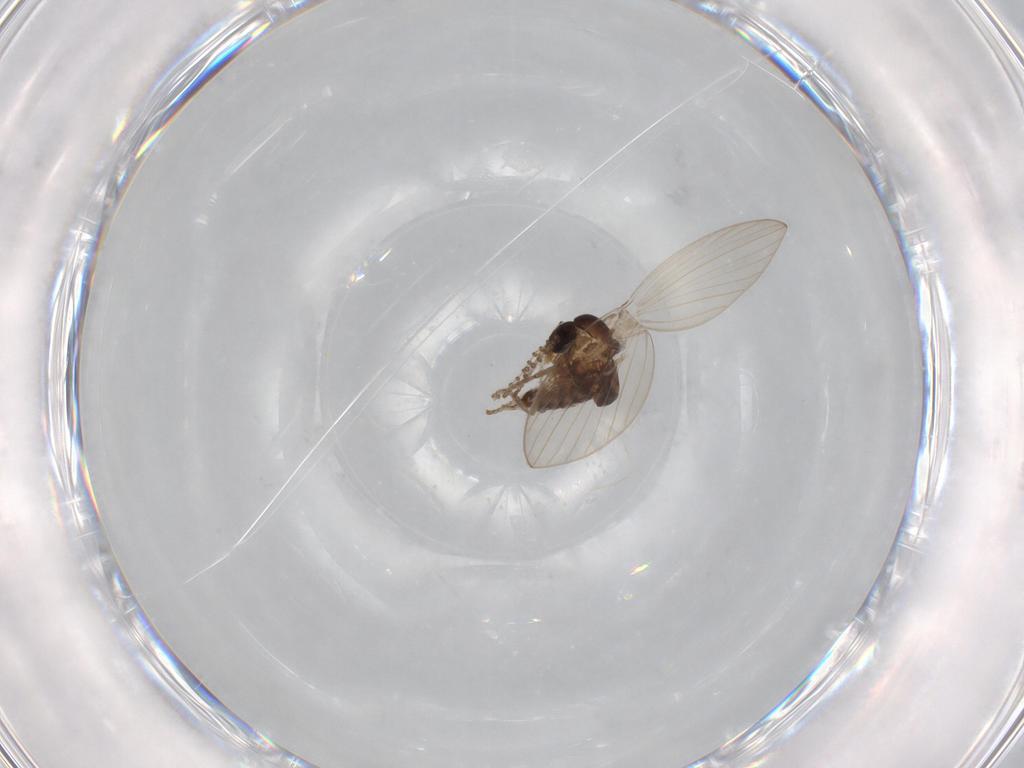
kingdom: Animalia
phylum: Arthropoda
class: Insecta
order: Diptera
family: Psychodidae
